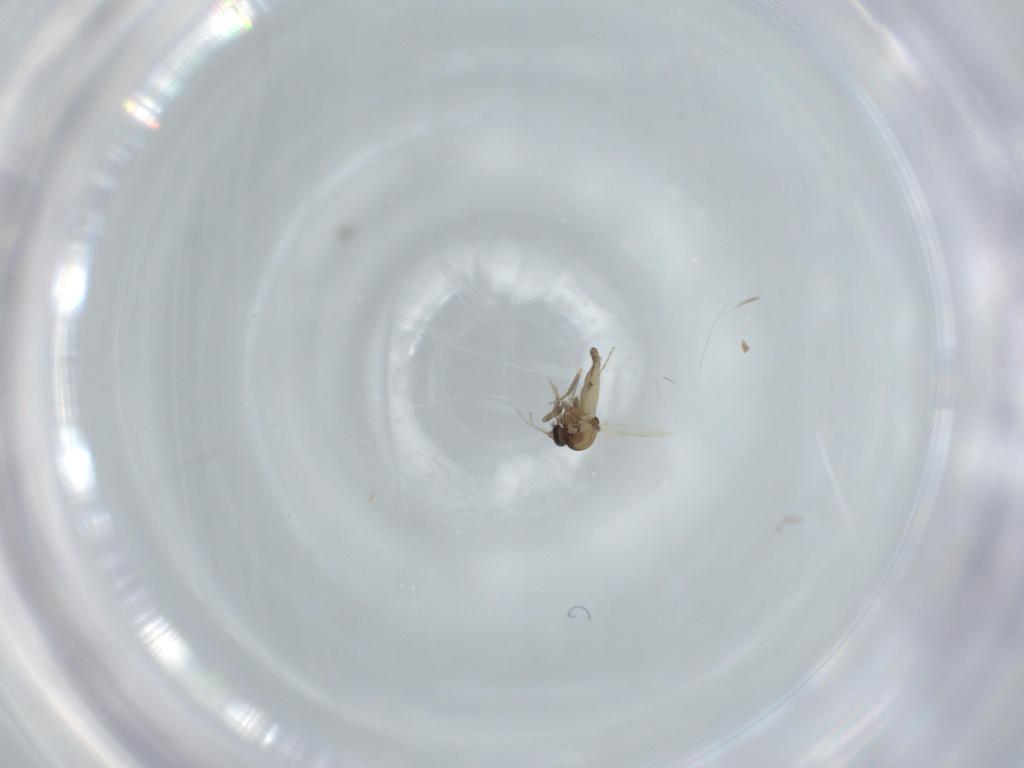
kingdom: Animalia
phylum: Arthropoda
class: Insecta
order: Diptera
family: Ceratopogonidae
